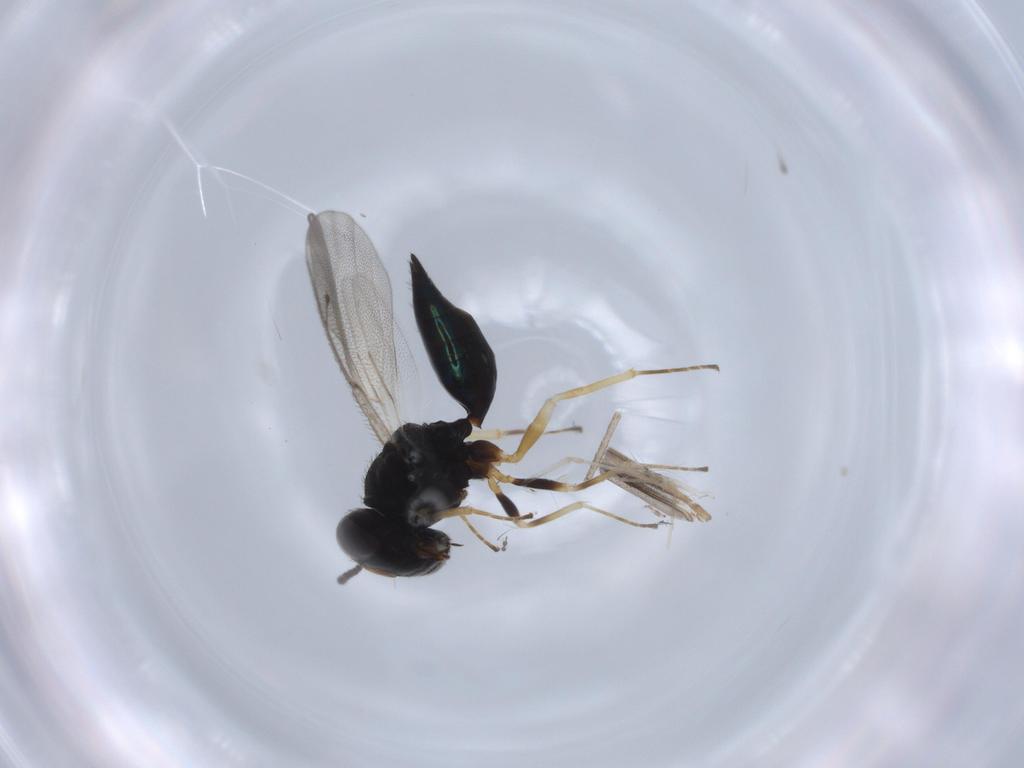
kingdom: Animalia
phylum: Arthropoda
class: Insecta
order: Hymenoptera
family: Pteromalidae
